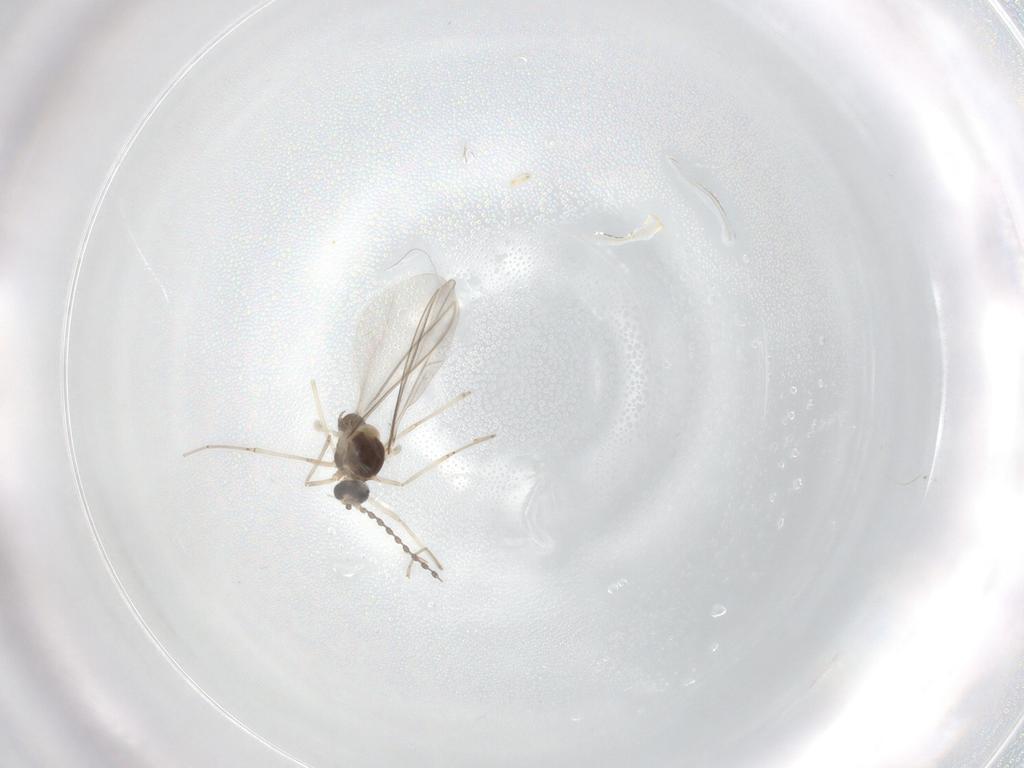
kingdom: Animalia
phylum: Arthropoda
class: Insecta
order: Diptera
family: Cecidomyiidae
